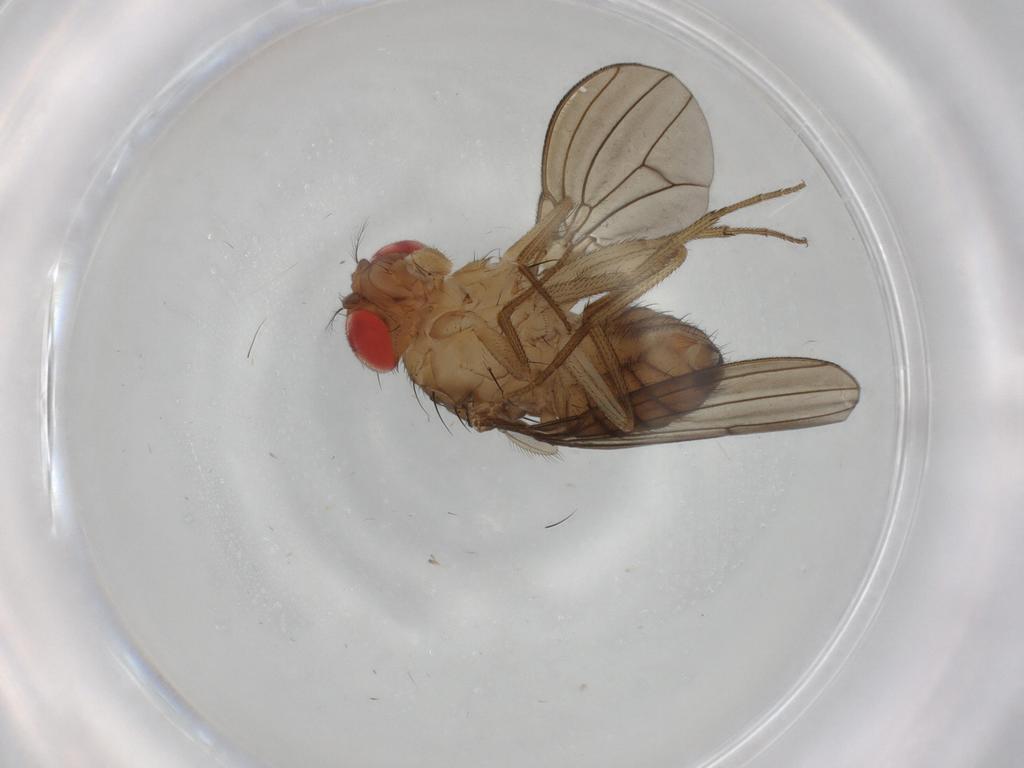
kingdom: Animalia
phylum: Arthropoda
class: Insecta
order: Diptera
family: Drosophilidae
